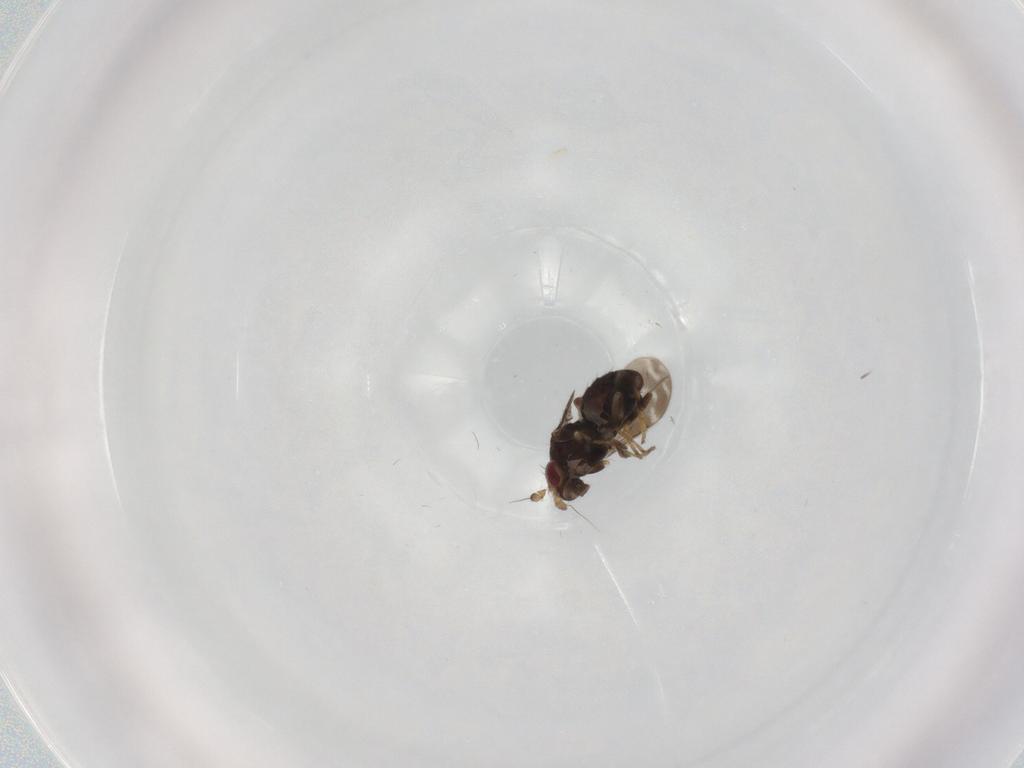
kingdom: Animalia
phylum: Arthropoda
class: Insecta
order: Diptera
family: Sphaeroceridae
